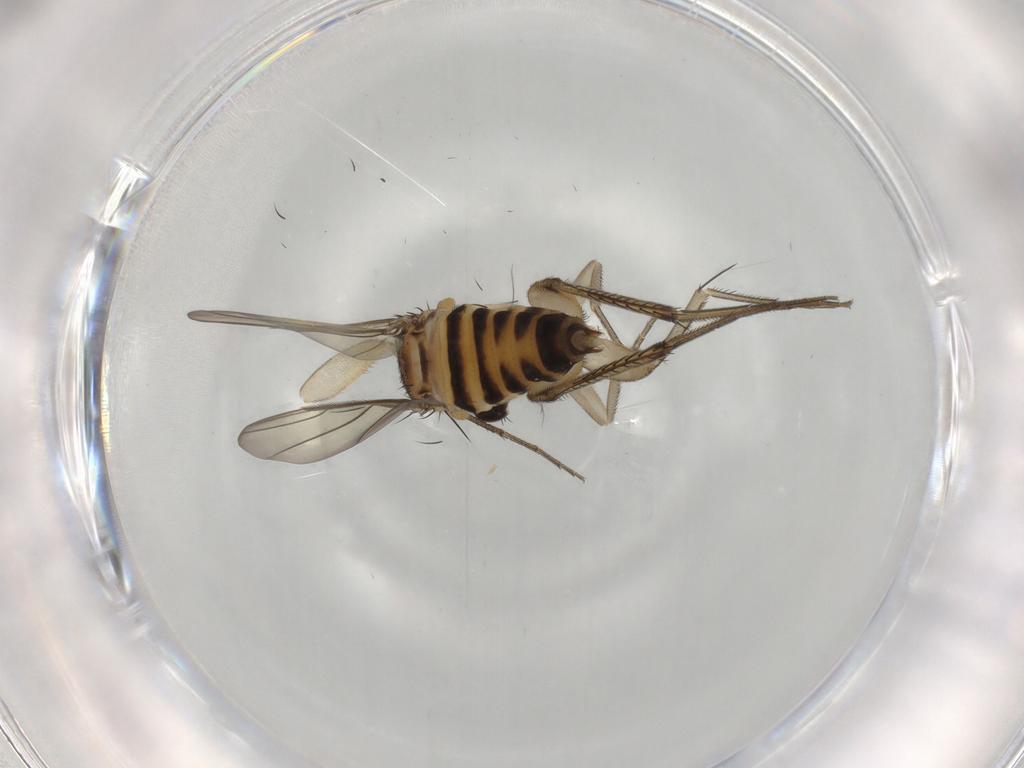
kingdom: Animalia
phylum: Arthropoda
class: Insecta
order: Diptera
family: Phoridae
